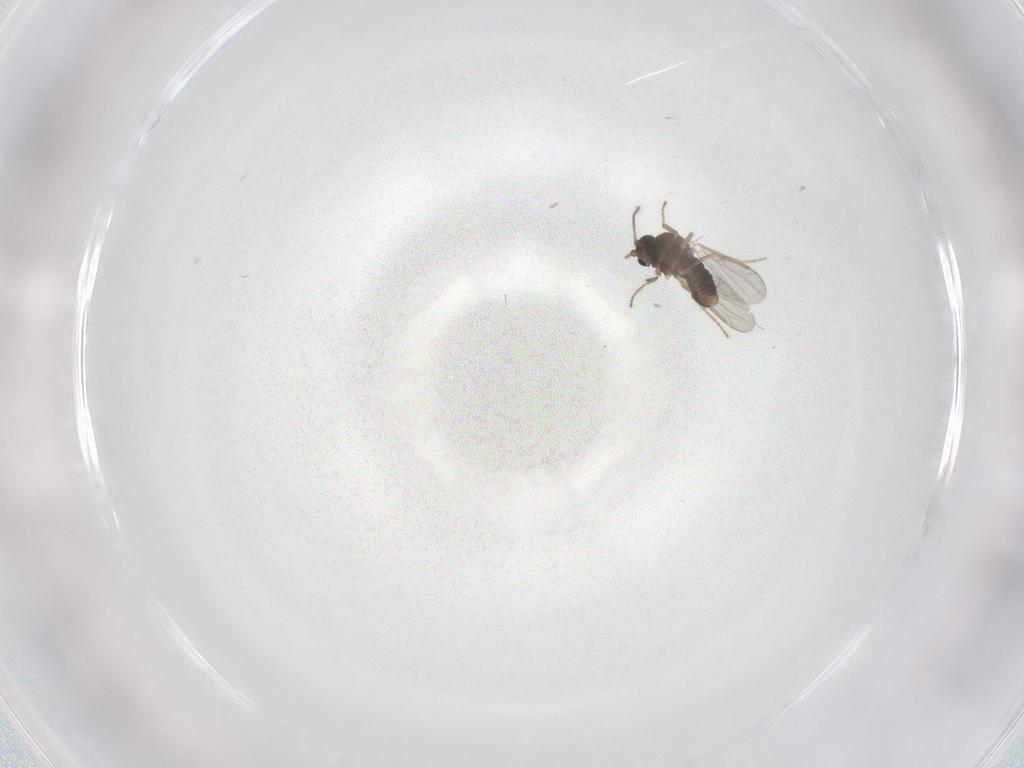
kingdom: Animalia
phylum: Arthropoda
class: Insecta
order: Diptera
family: Ceratopogonidae
